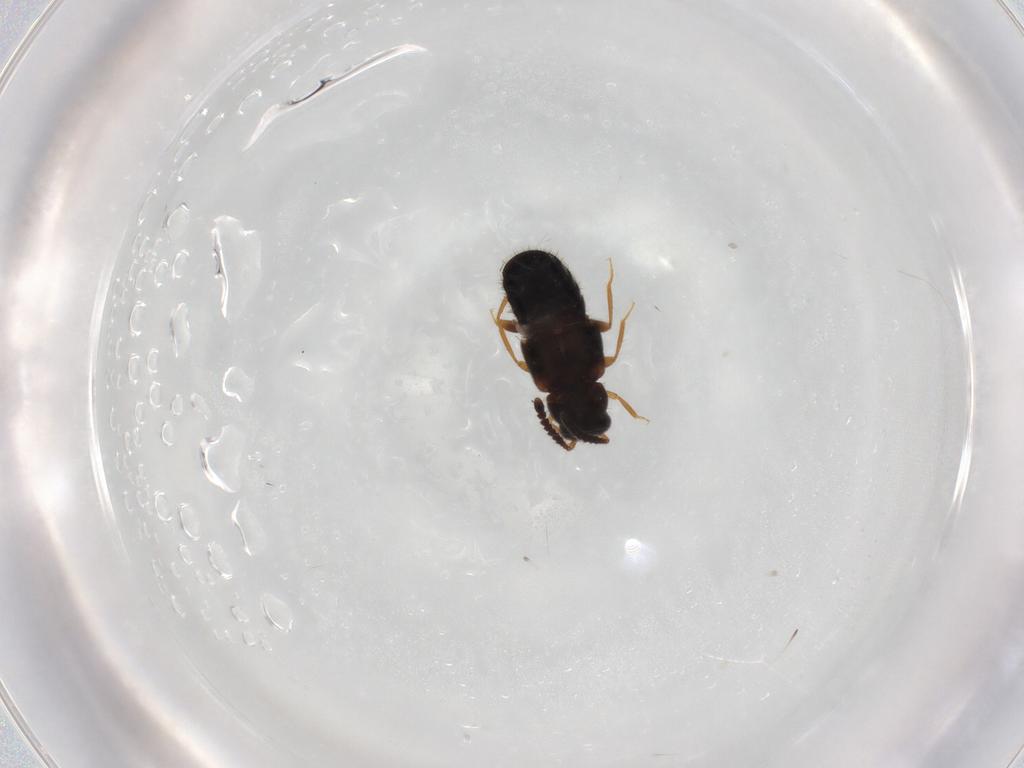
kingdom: Animalia
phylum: Arthropoda
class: Insecta
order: Coleoptera
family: Staphylinidae
